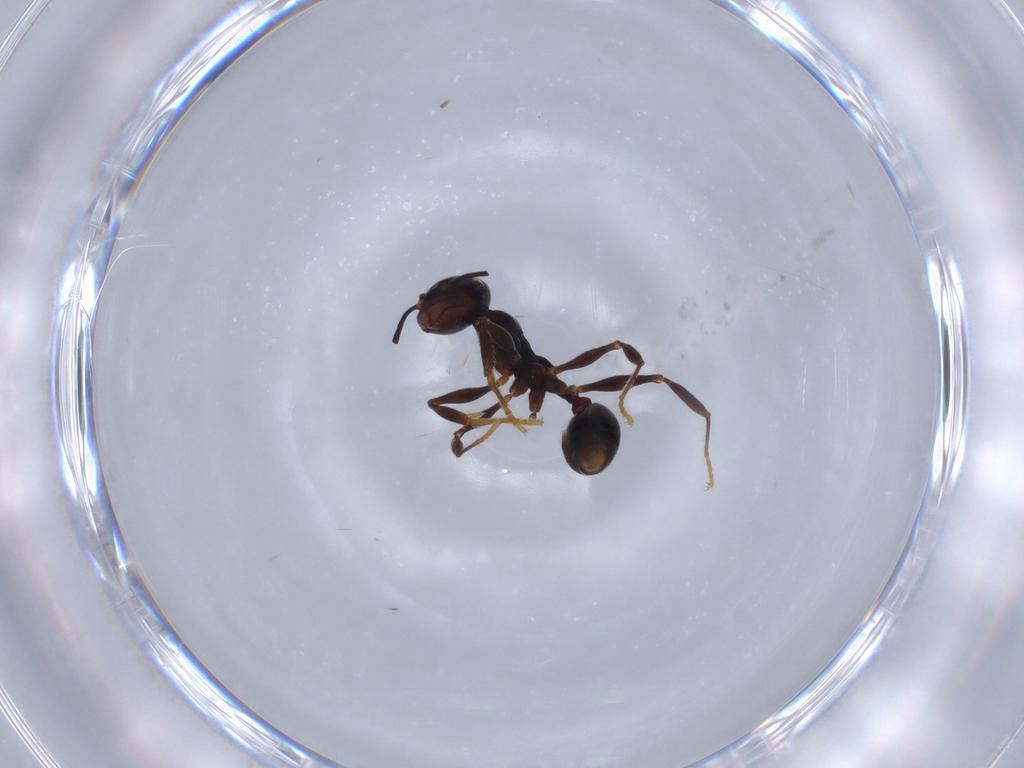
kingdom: Animalia
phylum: Arthropoda
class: Insecta
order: Hymenoptera
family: Formicidae
